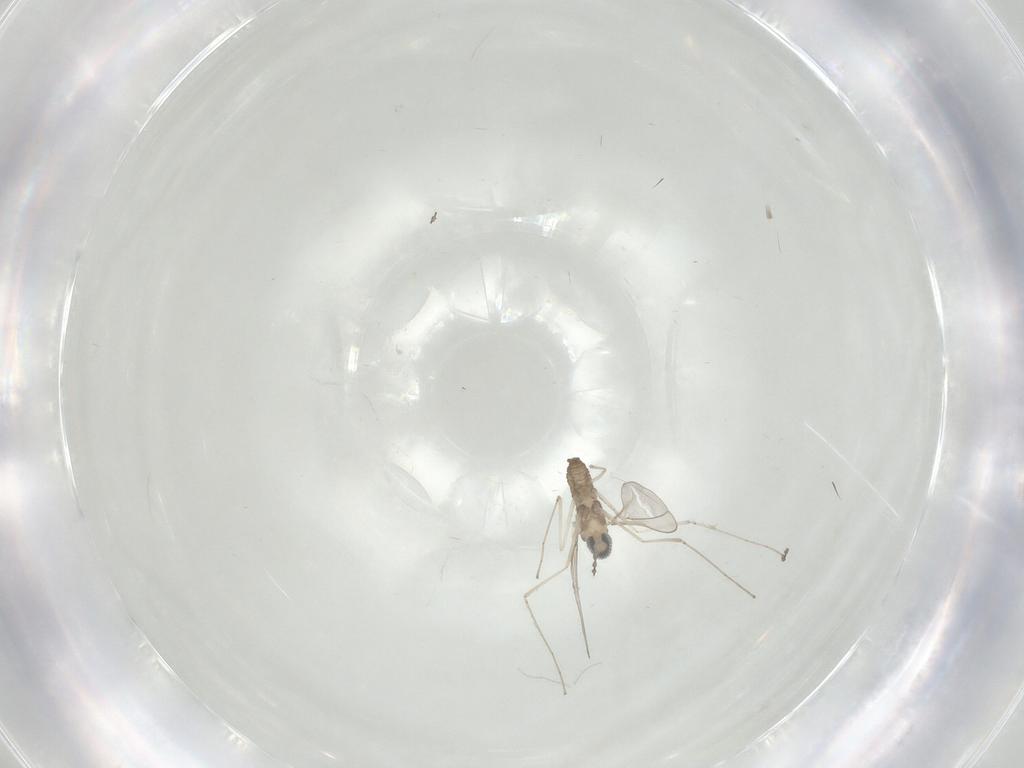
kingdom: Animalia
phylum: Arthropoda
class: Insecta
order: Diptera
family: Cecidomyiidae
